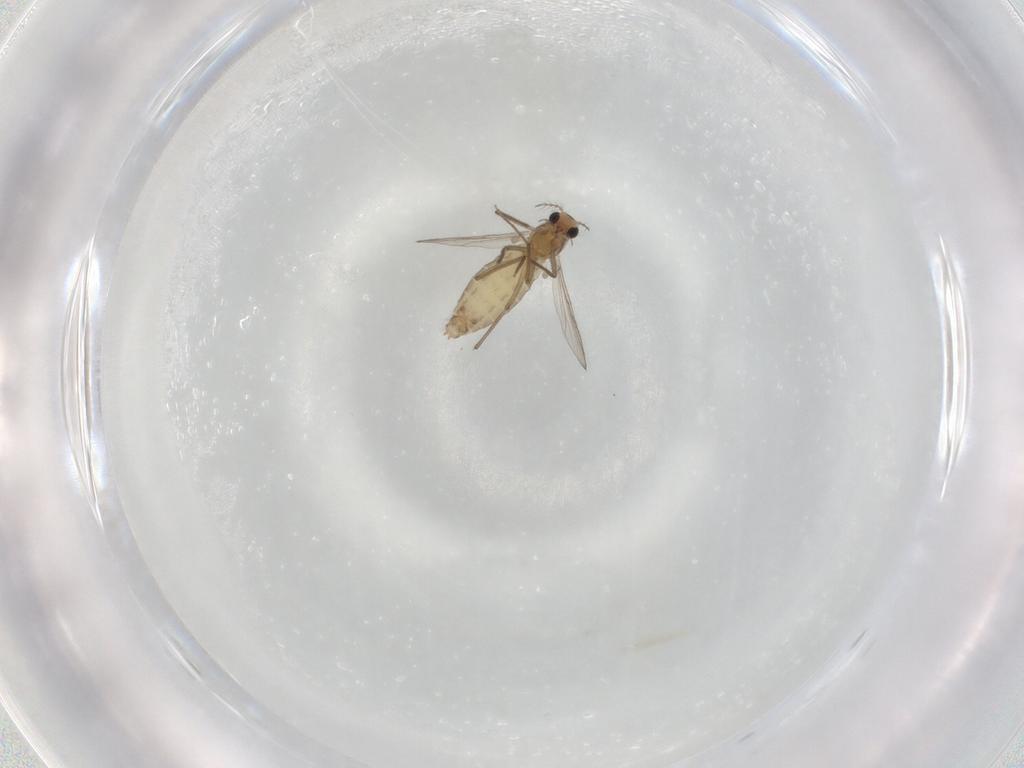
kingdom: Animalia
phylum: Arthropoda
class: Insecta
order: Diptera
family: Chironomidae
